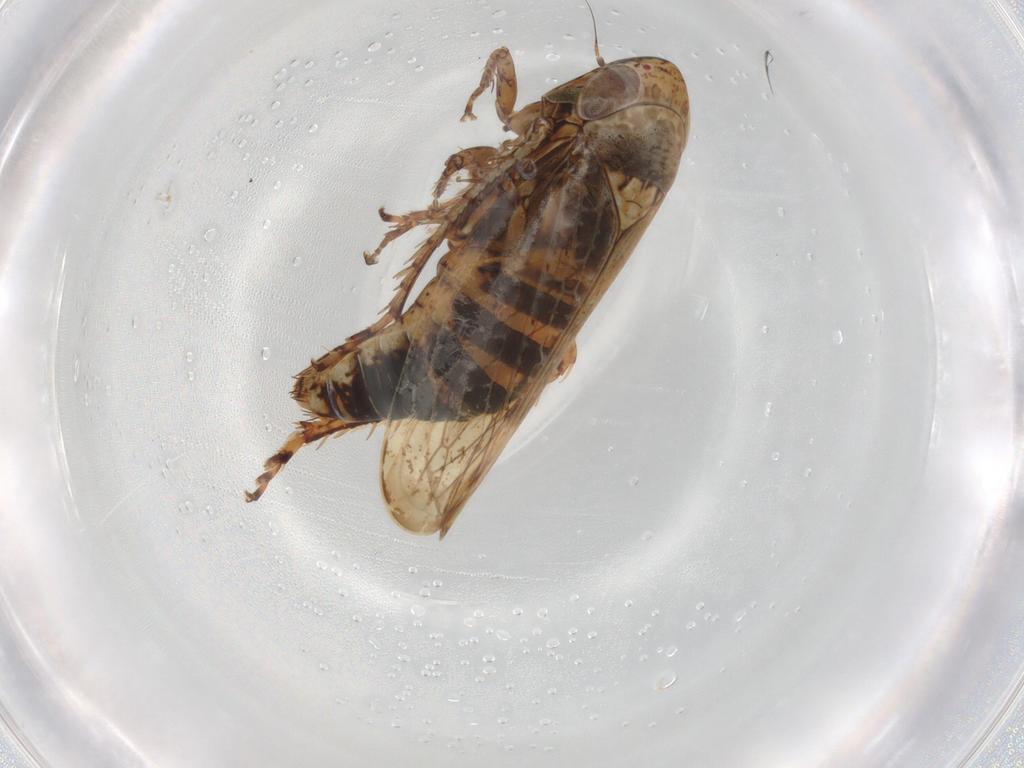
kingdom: Animalia
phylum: Arthropoda
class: Insecta
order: Hemiptera
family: Cicadellidae
